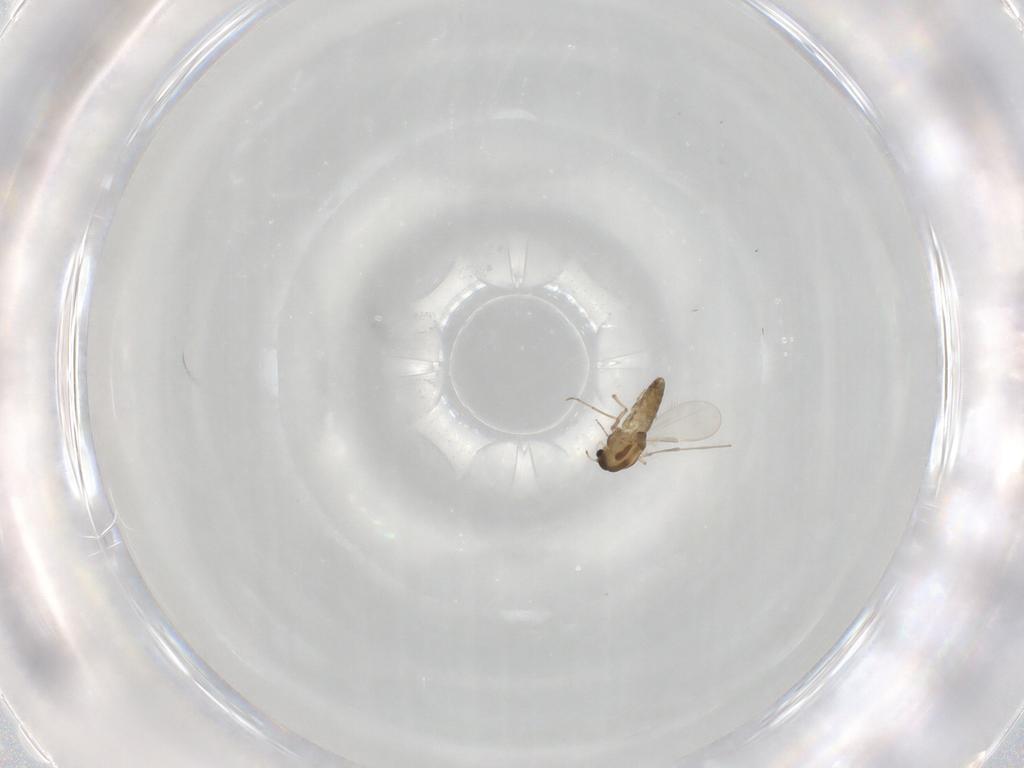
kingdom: Animalia
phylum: Arthropoda
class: Insecta
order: Diptera
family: Chironomidae
